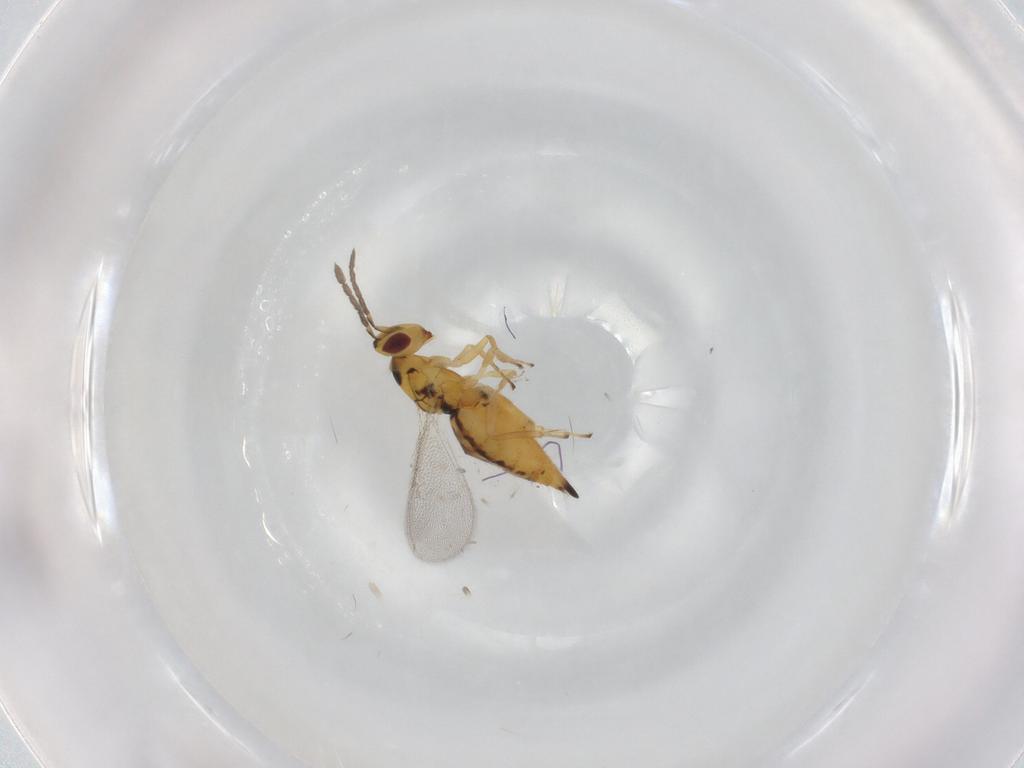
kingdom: Animalia
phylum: Arthropoda
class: Insecta
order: Hymenoptera
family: Eulophidae
